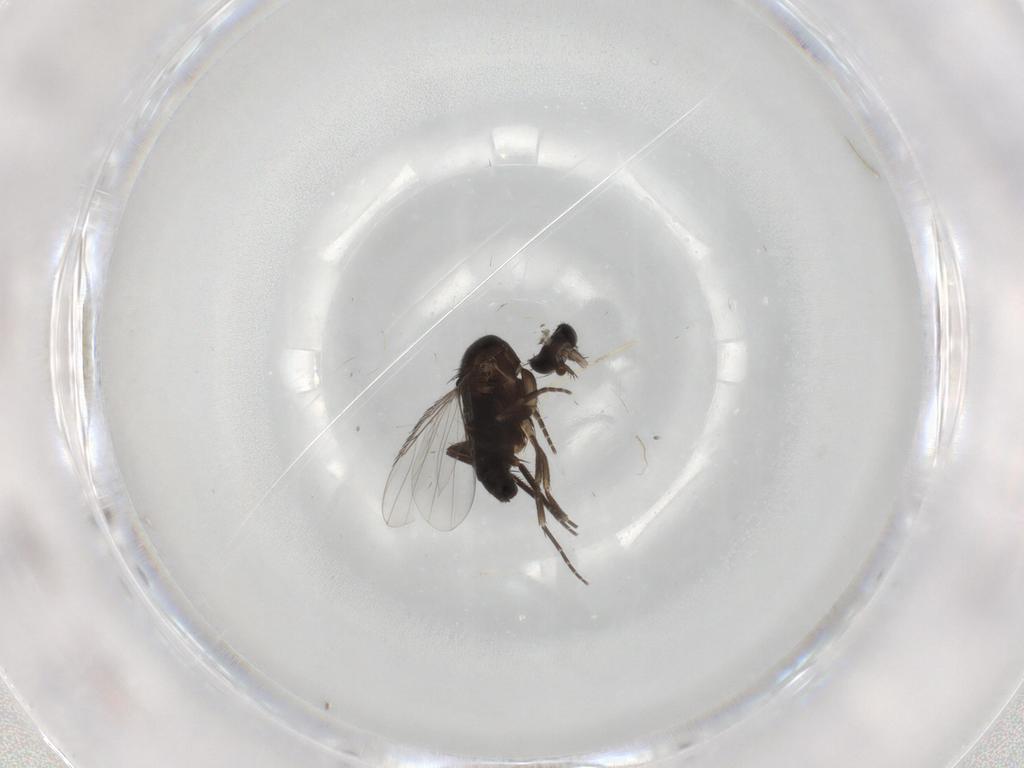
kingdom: Animalia
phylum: Arthropoda
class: Insecta
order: Diptera
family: Phoridae
